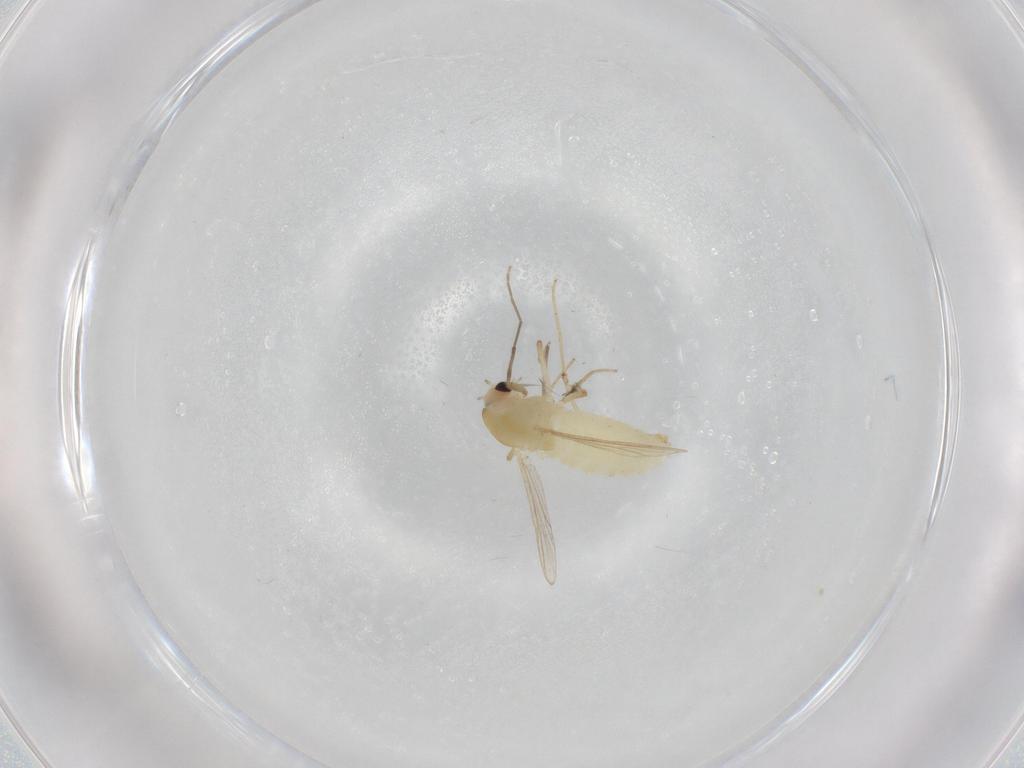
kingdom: Animalia
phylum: Arthropoda
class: Insecta
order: Diptera
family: Chironomidae
